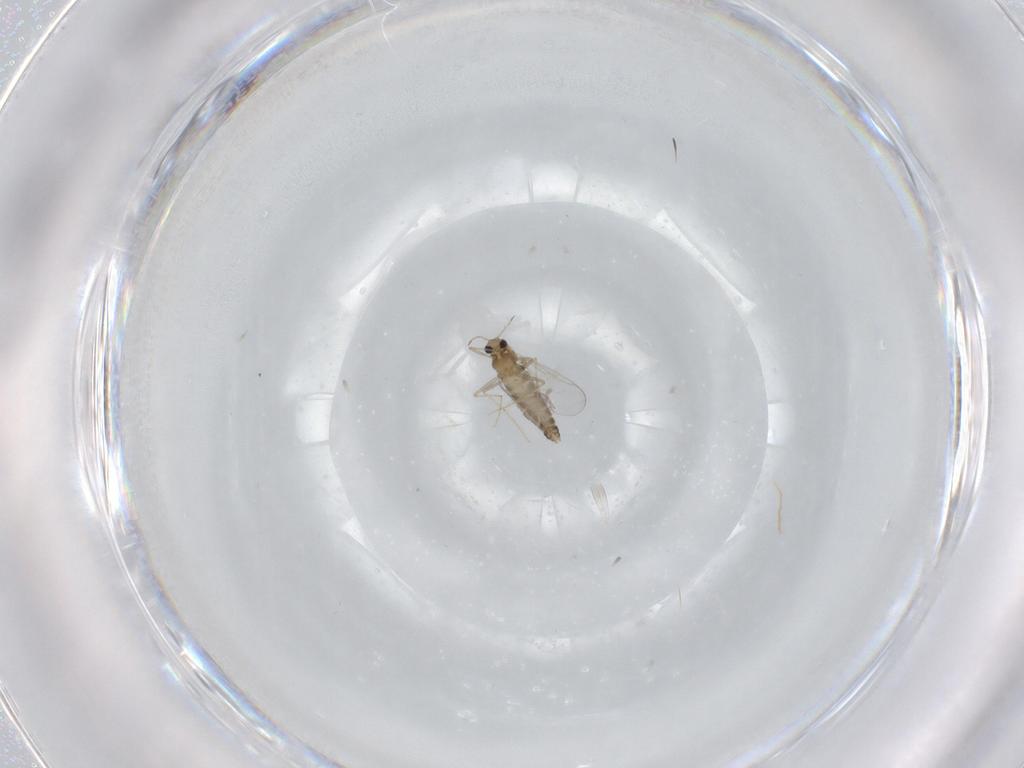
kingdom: Animalia
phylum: Arthropoda
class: Insecta
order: Diptera
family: Chironomidae
